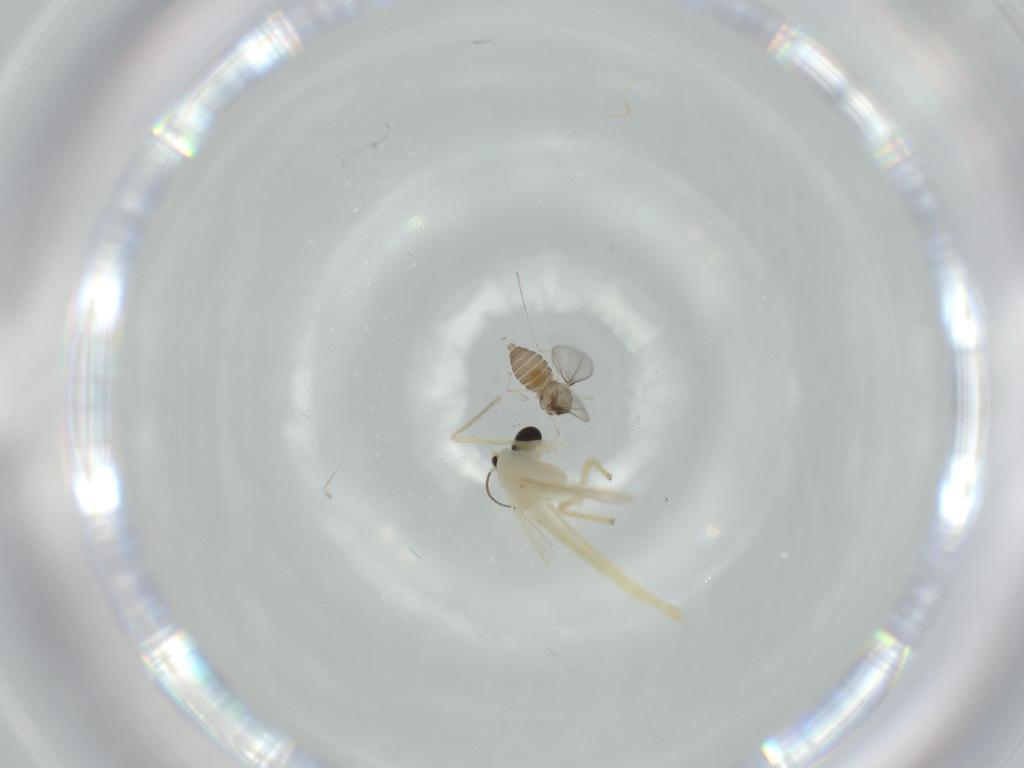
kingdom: Animalia
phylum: Arthropoda
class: Insecta
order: Diptera
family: Cecidomyiidae
